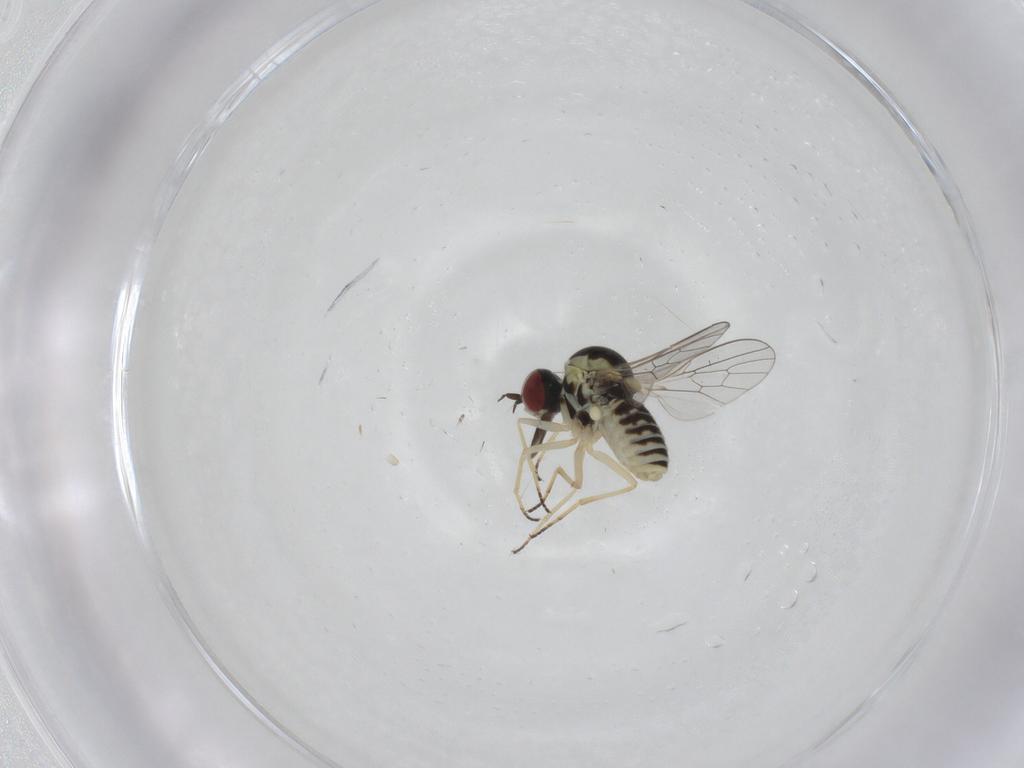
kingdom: Animalia
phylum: Arthropoda
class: Insecta
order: Diptera
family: Mythicomyiidae
